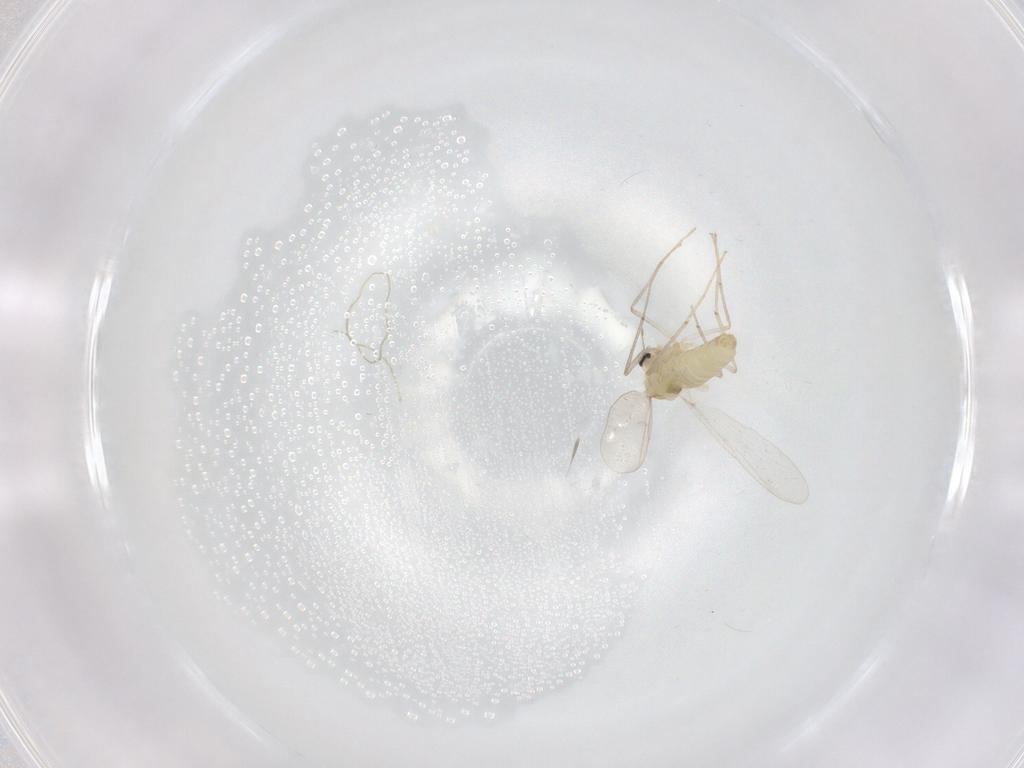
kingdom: Animalia
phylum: Arthropoda
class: Insecta
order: Diptera
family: Chironomidae
